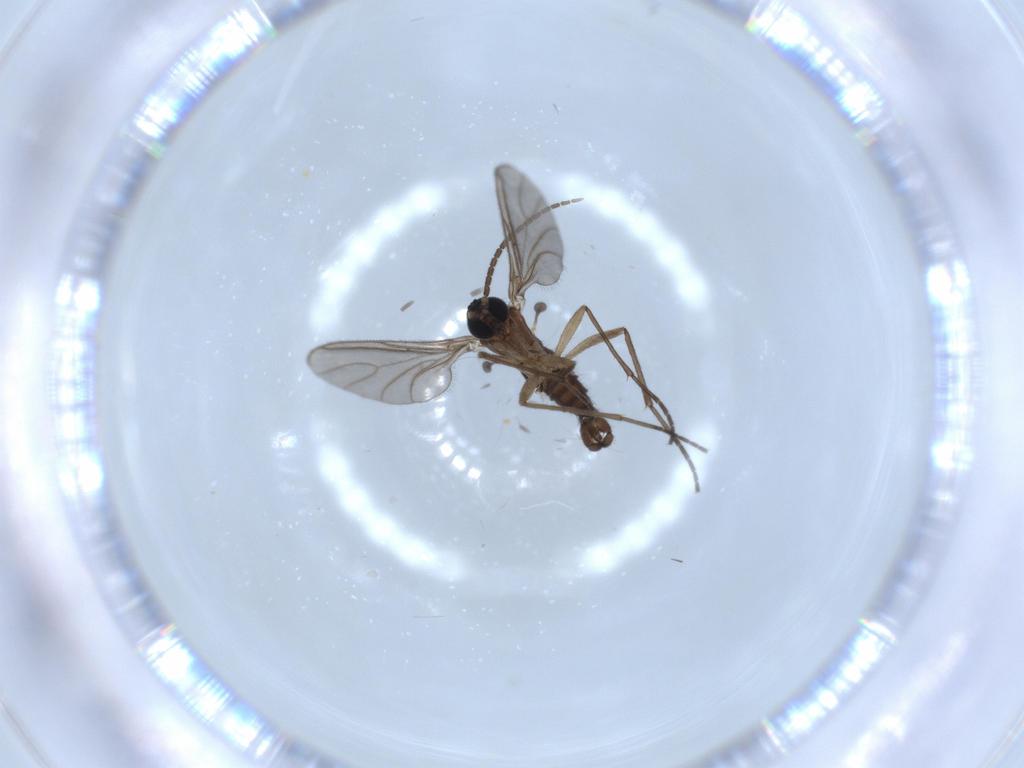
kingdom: Animalia
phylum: Arthropoda
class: Insecta
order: Diptera
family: Sciaridae
